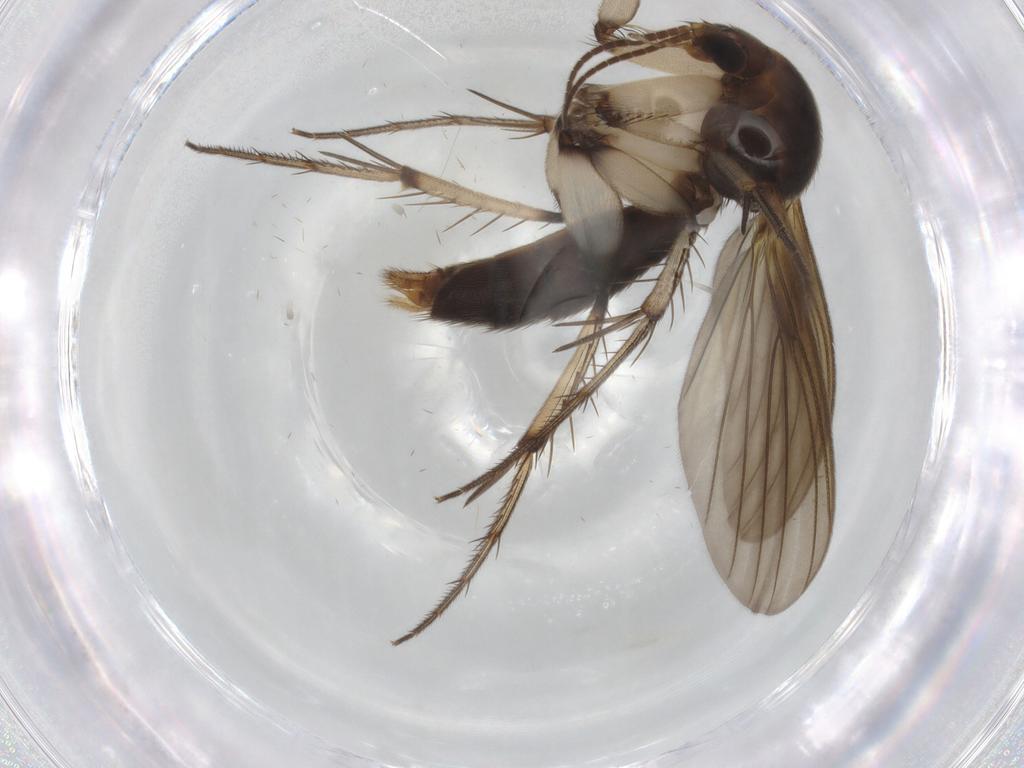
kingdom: Animalia
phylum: Arthropoda
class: Insecta
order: Diptera
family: Mycetophilidae
